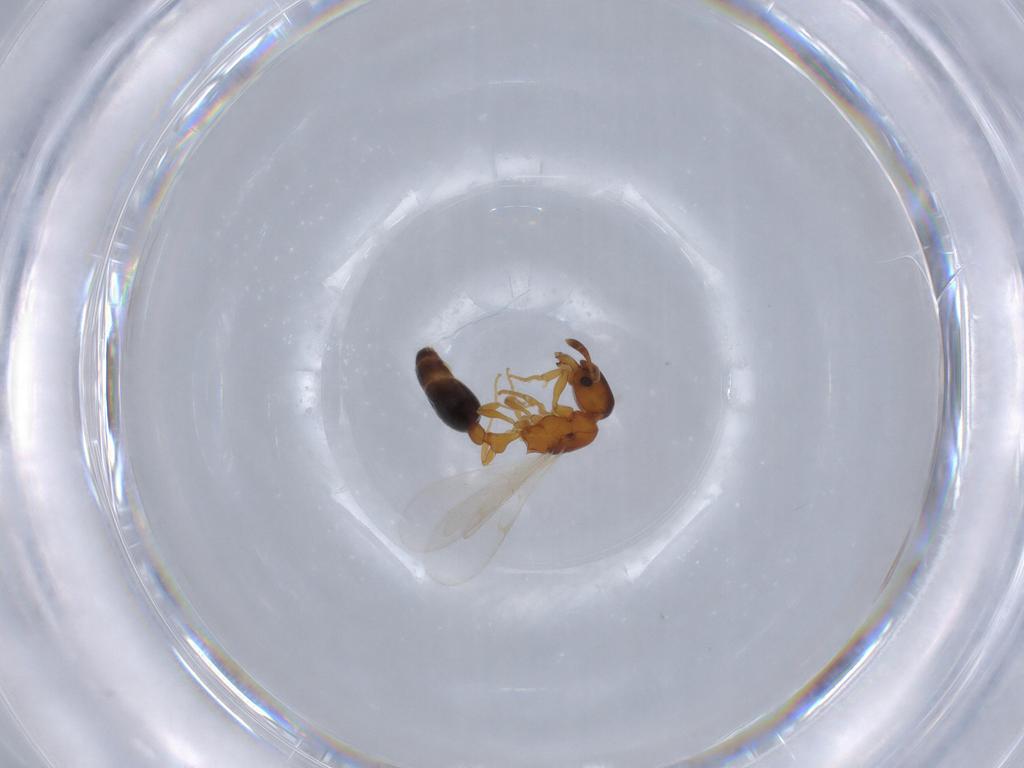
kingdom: Animalia
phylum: Arthropoda
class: Insecta
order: Hymenoptera
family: Formicidae
